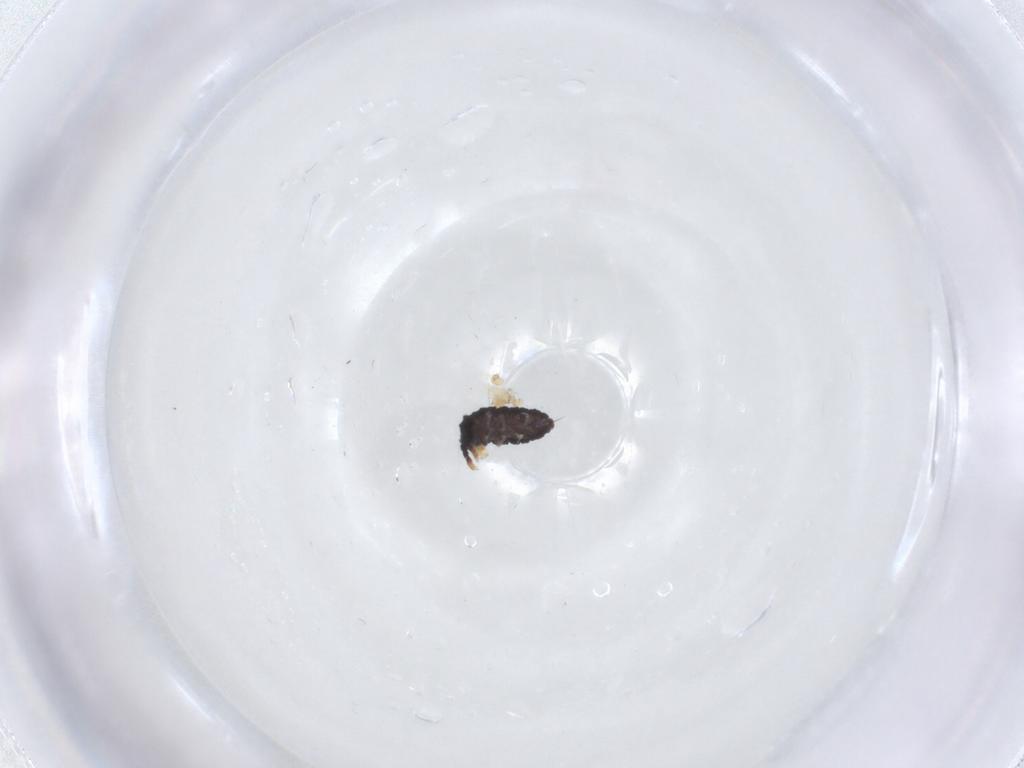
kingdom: Animalia
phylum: Arthropoda
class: Collembola
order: Poduromorpha
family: Neanuridae
